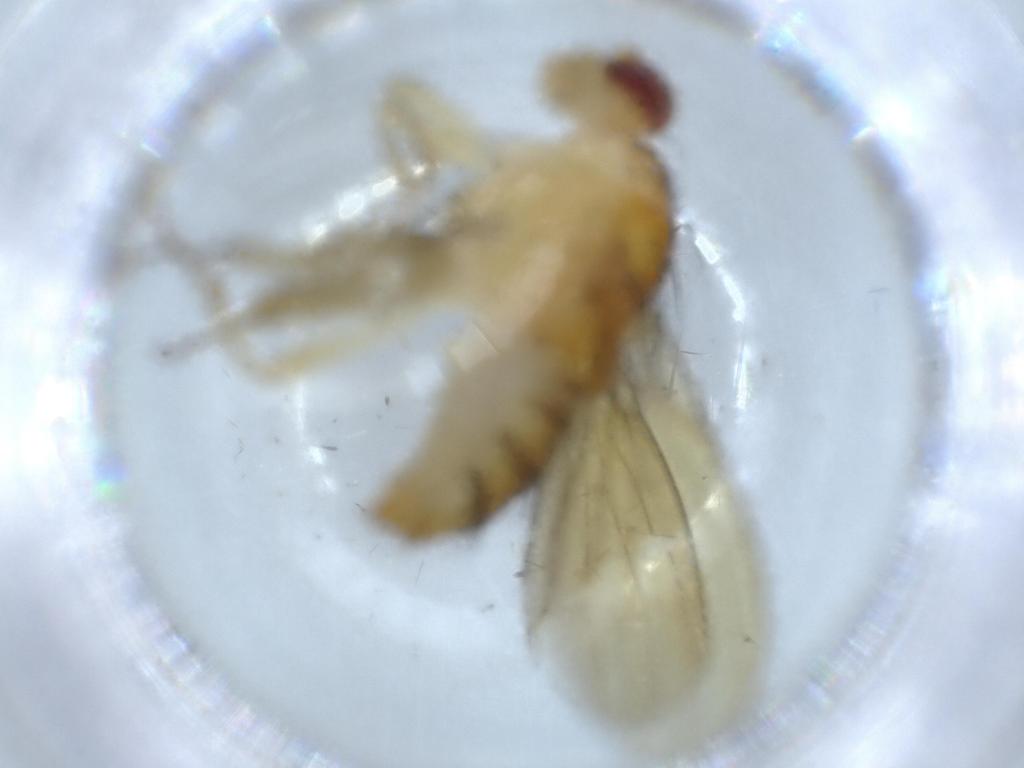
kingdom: Animalia
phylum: Arthropoda
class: Insecta
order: Diptera
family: Chironomidae
